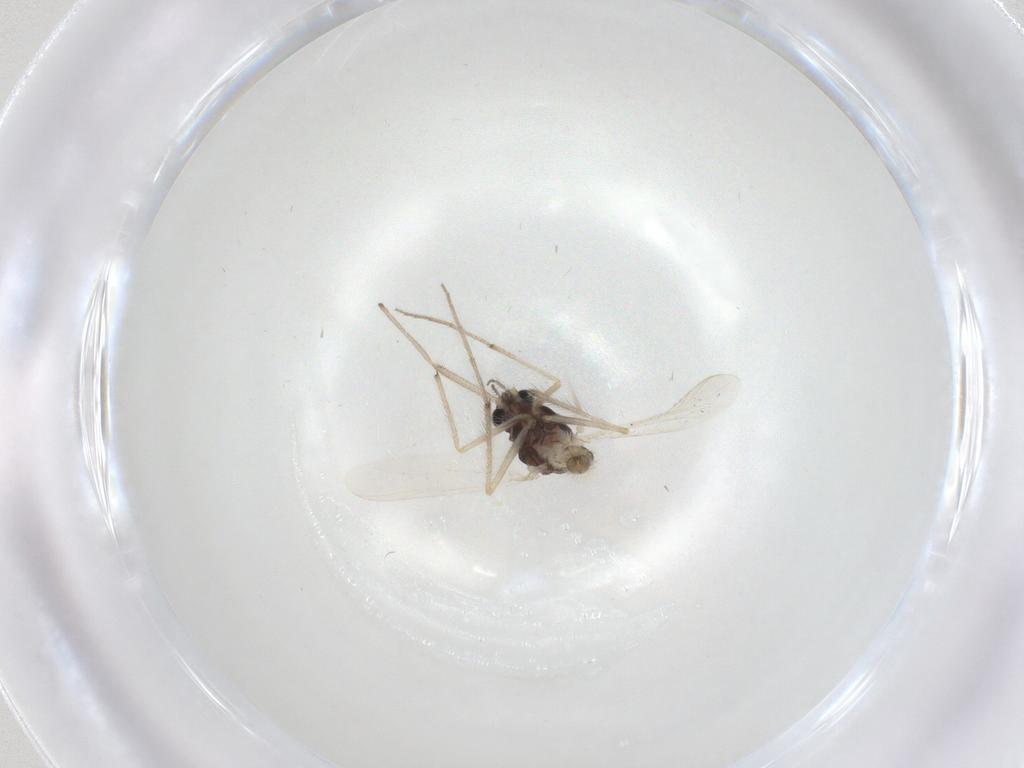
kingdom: Animalia
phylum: Arthropoda
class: Insecta
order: Diptera
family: Chironomidae
